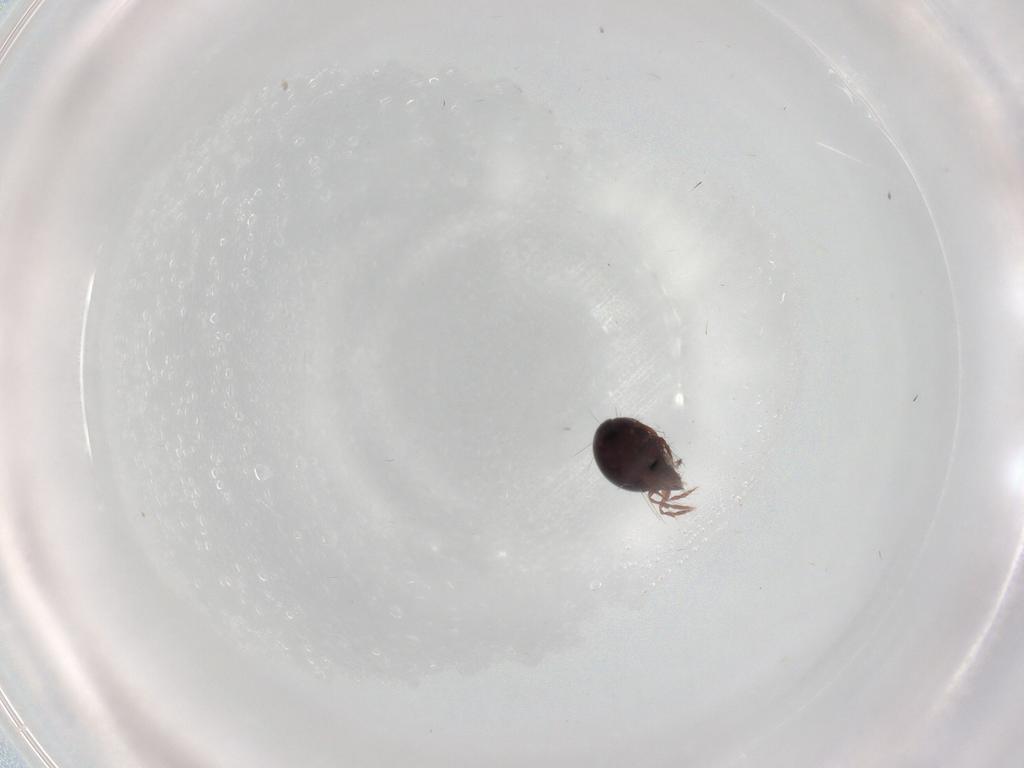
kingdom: Animalia
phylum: Arthropoda
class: Arachnida
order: Sarcoptiformes
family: Ceratoppiidae
